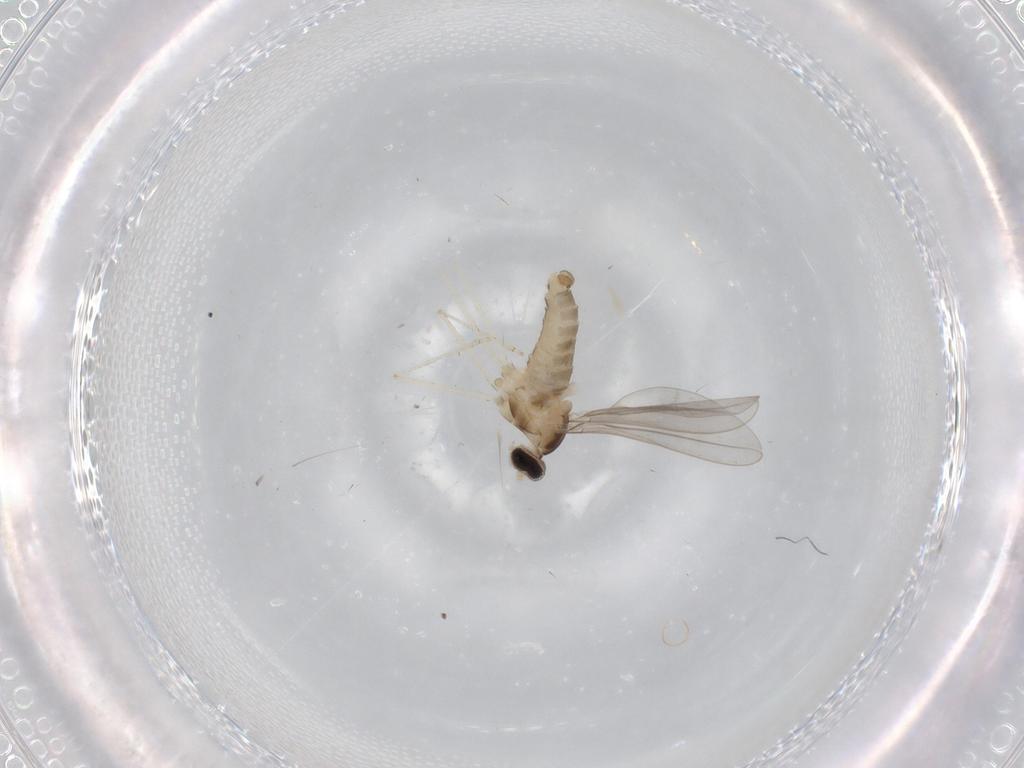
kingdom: Animalia
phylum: Arthropoda
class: Insecta
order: Diptera
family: Cecidomyiidae
